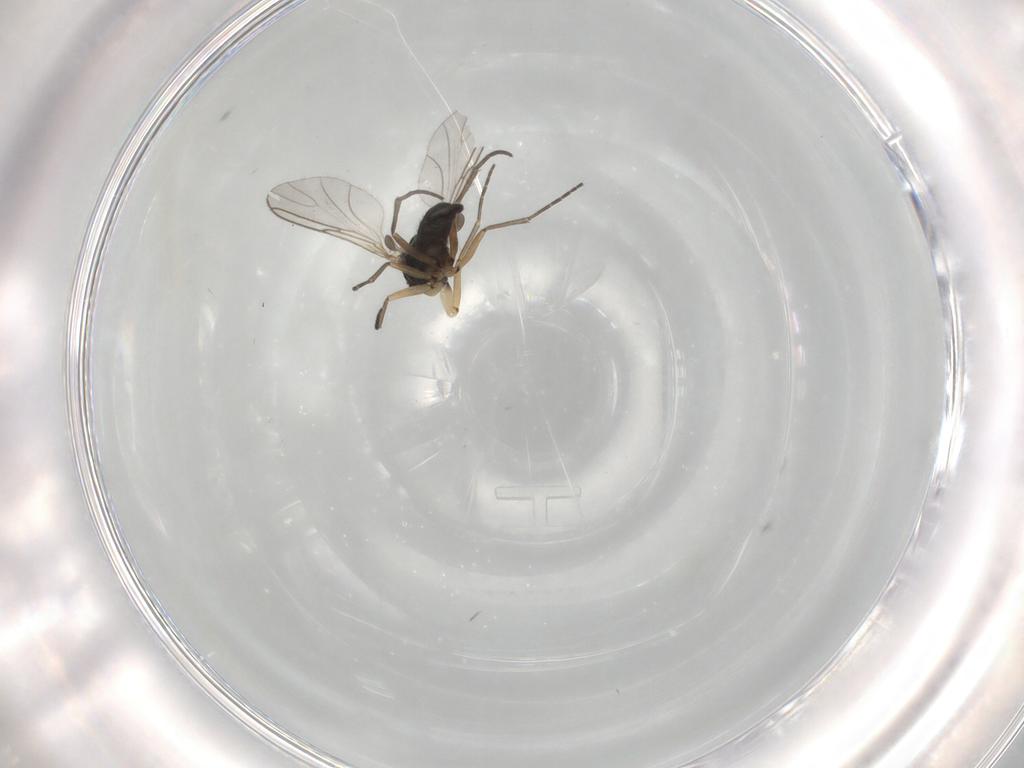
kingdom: Animalia
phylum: Arthropoda
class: Insecta
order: Diptera
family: Sciaridae
